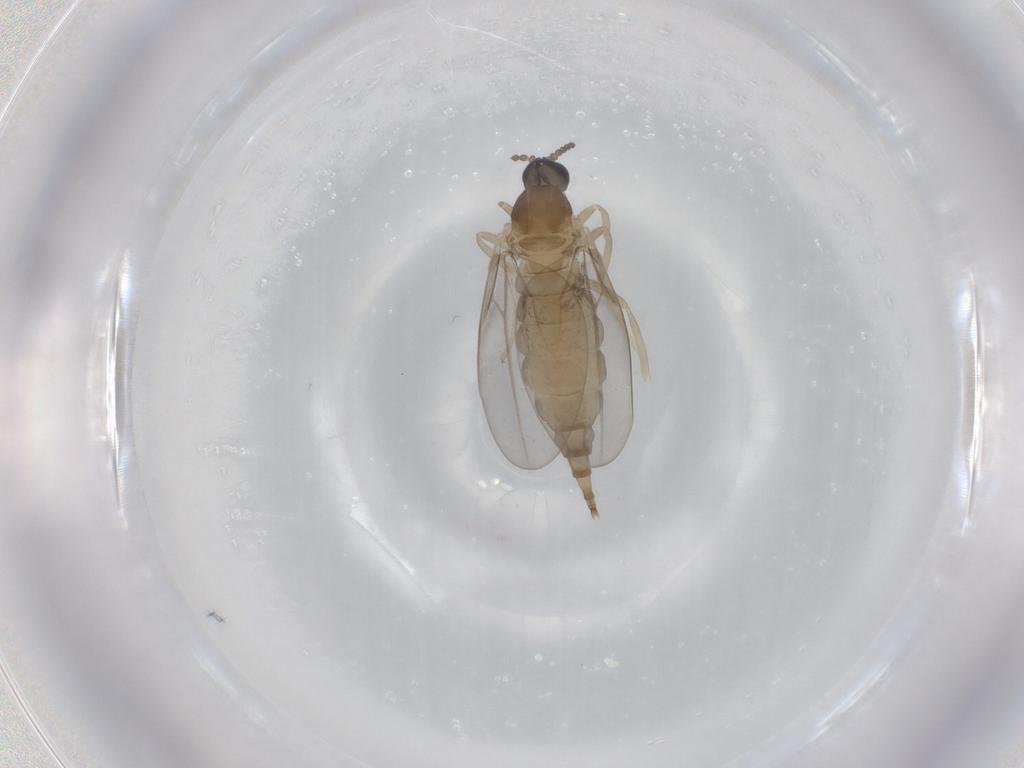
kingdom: Animalia
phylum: Arthropoda
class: Insecta
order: Diptera
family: Cecidomyiidae
